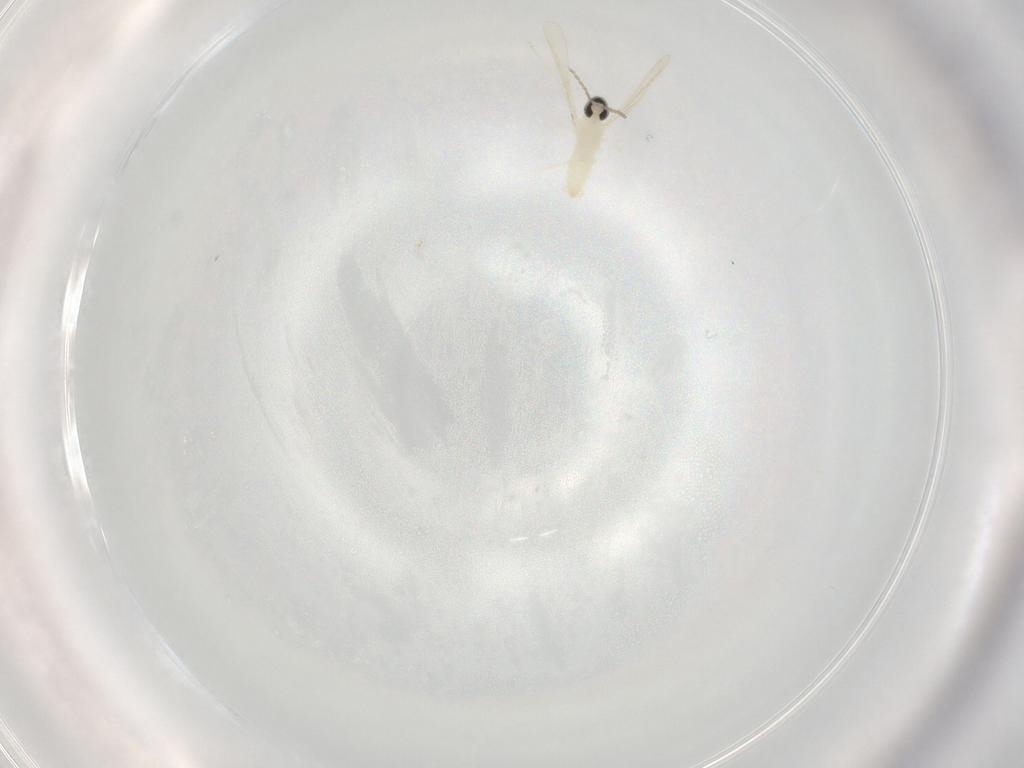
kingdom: Animalia
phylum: Arthropoda
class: Insecta
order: Diptera
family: Cecidomyiidae
